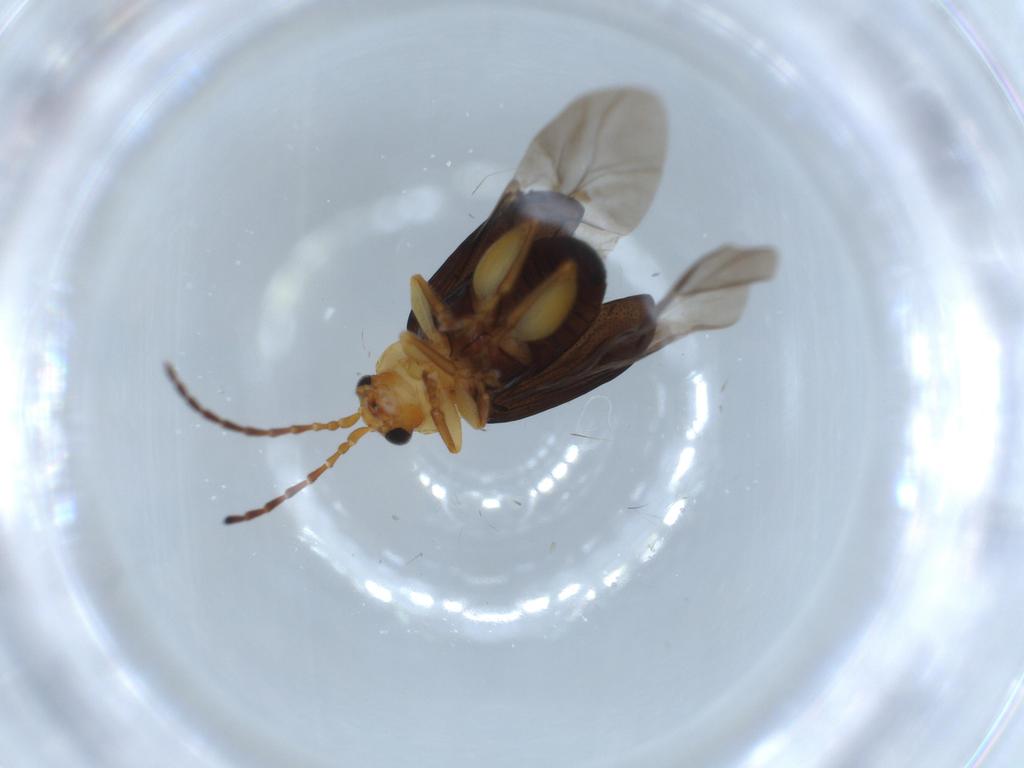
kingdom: Animalia
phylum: Arthropoda
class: Insecta
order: Coleoptera
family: Chrysomelidae
